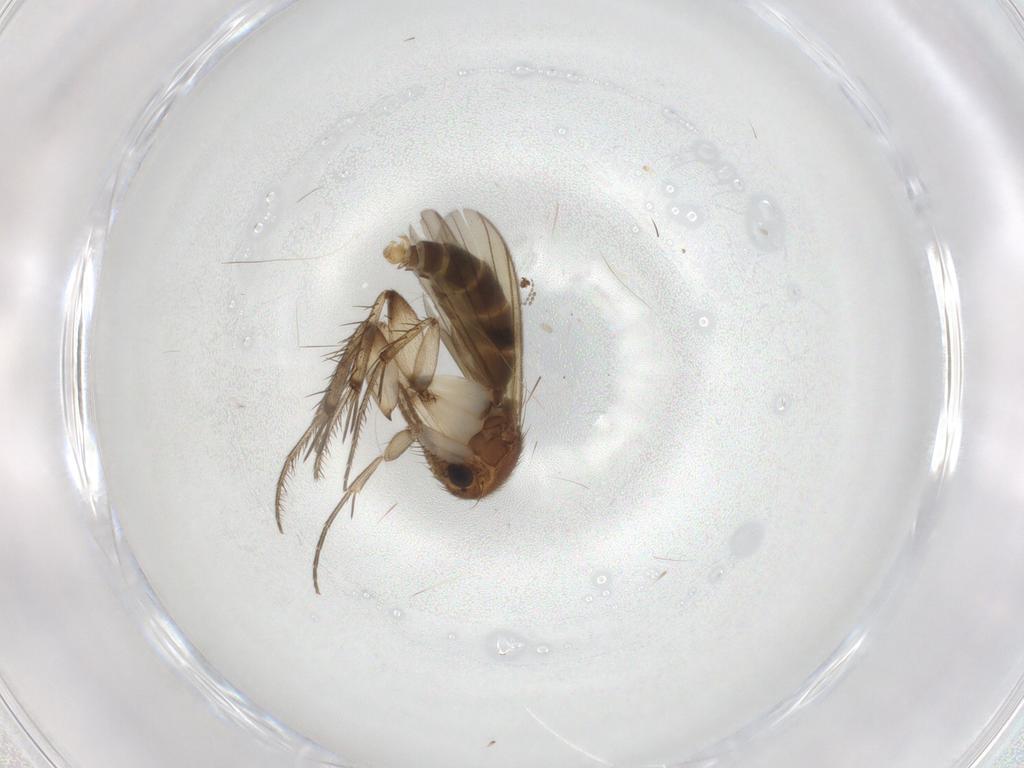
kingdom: Animalia
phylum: Arthropoda
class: Insecta
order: Diptera
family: Mycetophilidae
